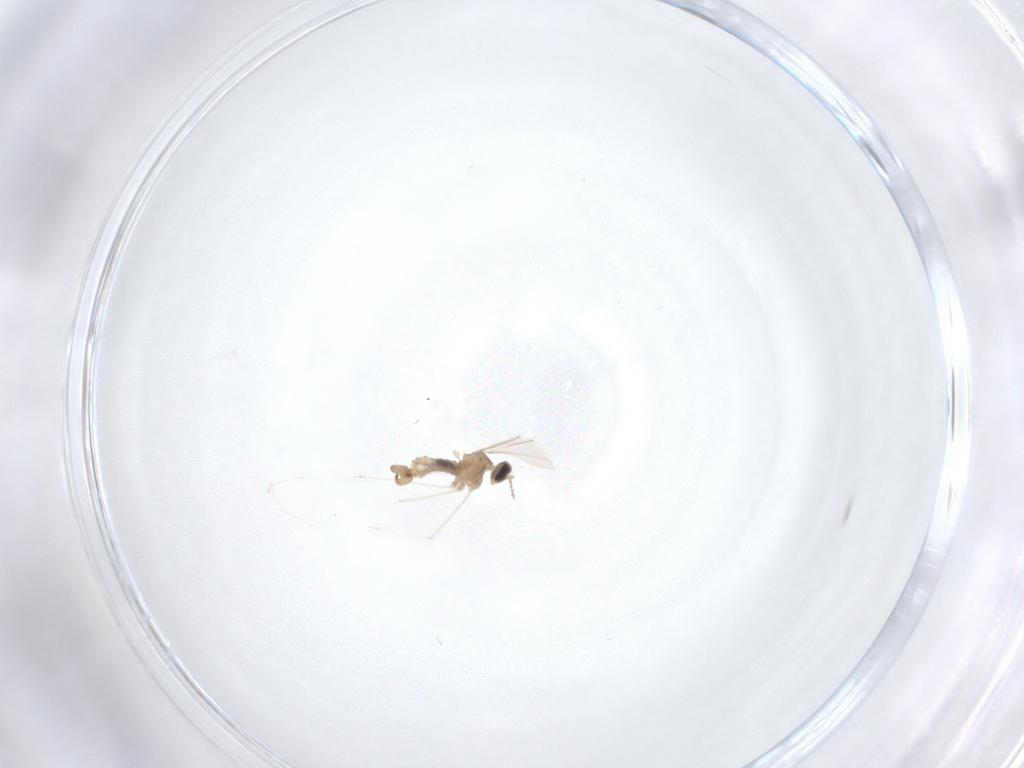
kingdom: Animalia
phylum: Arthropoda
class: Insecta
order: Diptera
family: Cecidomyiidae
